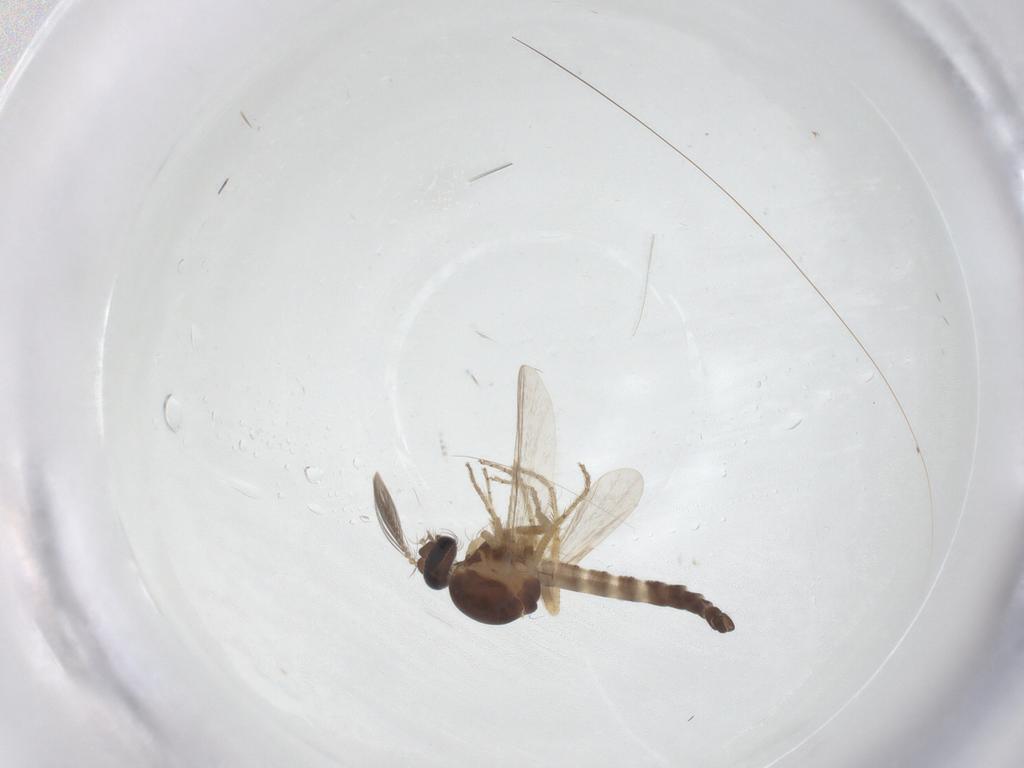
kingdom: Animalia
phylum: Arthropoda
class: Insecta
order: Diptera
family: Ceratopogonidae
